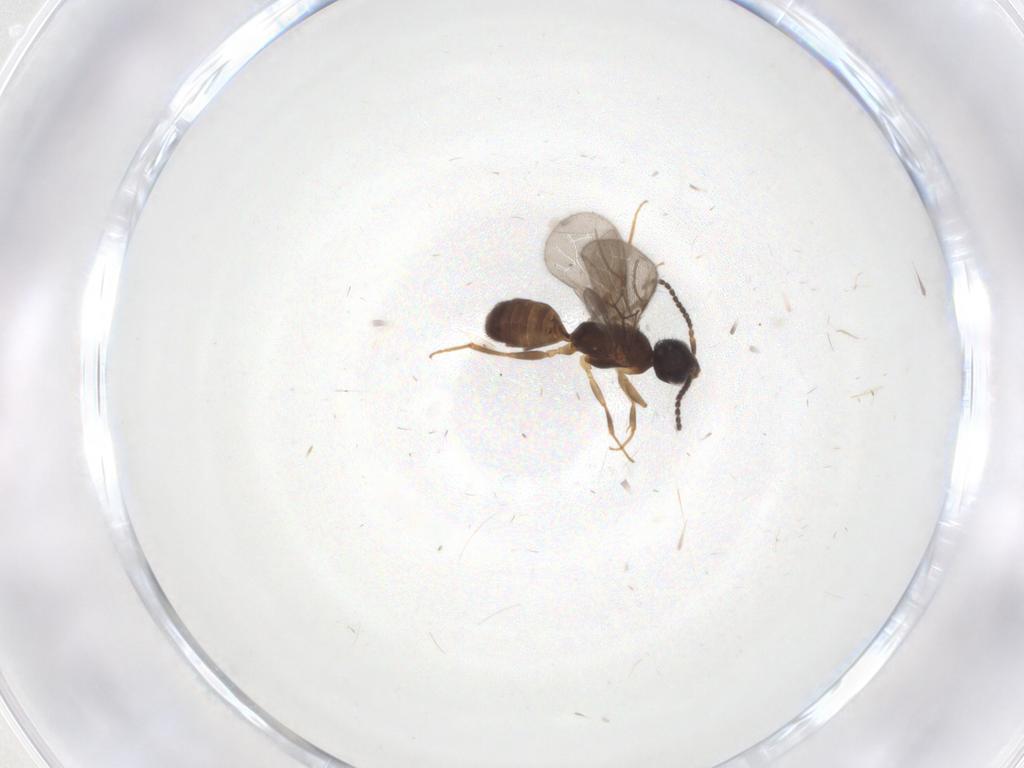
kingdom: Animalia
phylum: Arthropoda
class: Insecta
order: Hymenoptera
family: Bethylidae
